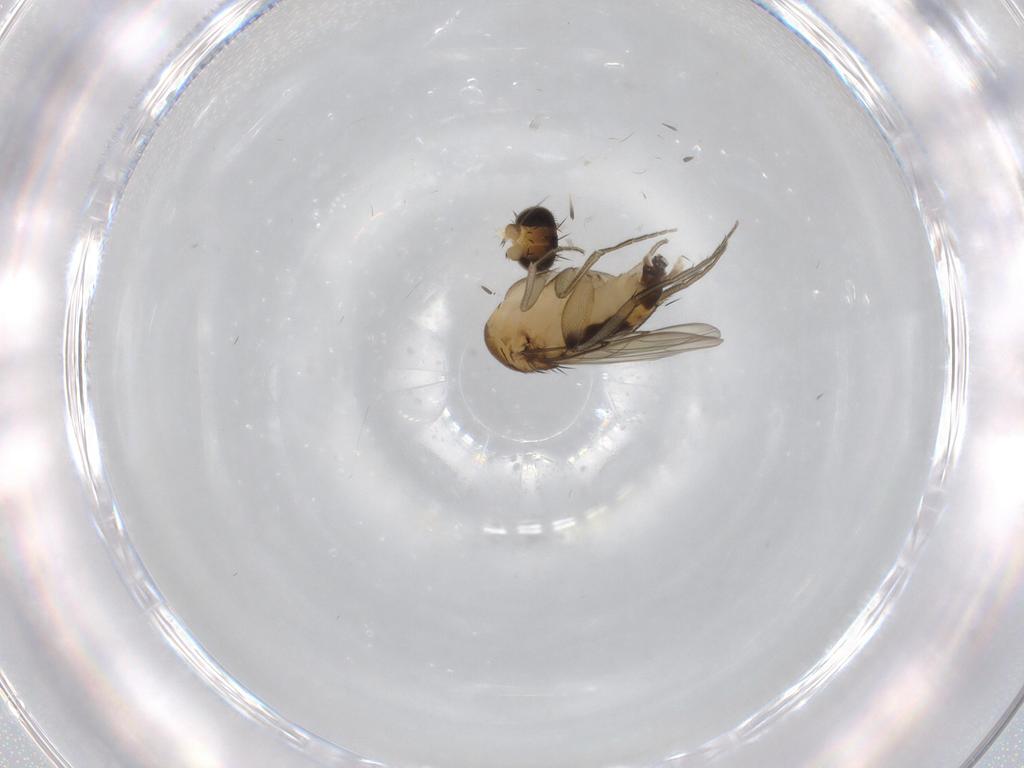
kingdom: Animalia
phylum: Arthropoda
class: Insecta
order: Diptera
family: Phoridae
